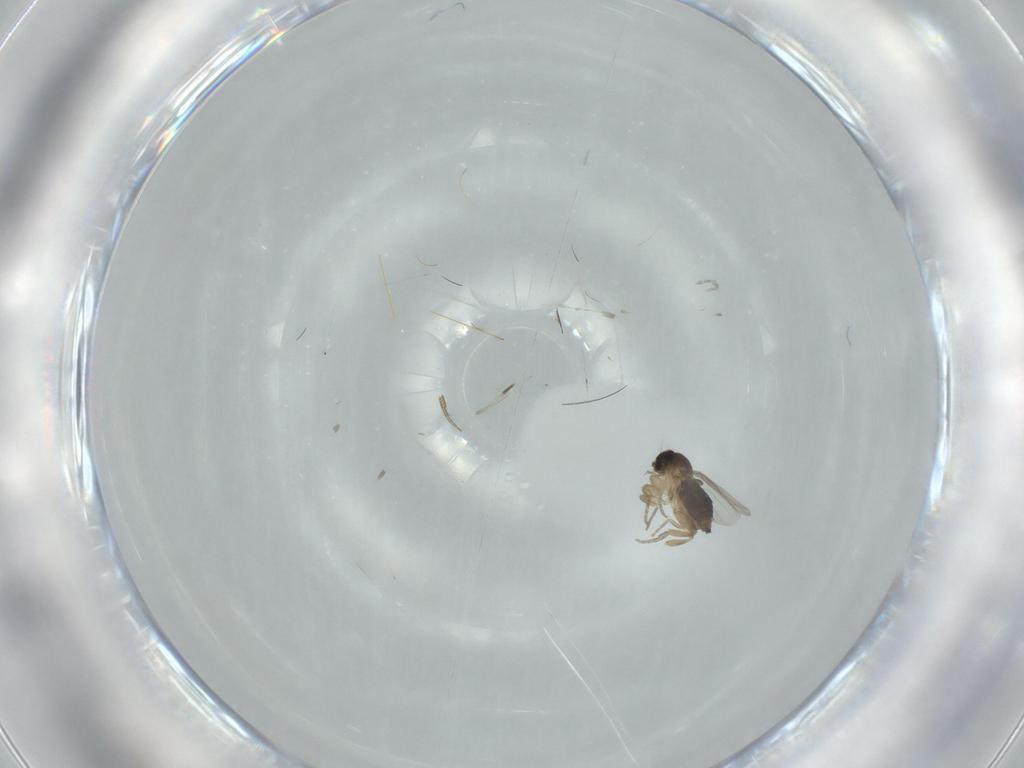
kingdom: Animalia
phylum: Arthropoda
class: Insecta
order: Diptera
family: Phoridae
